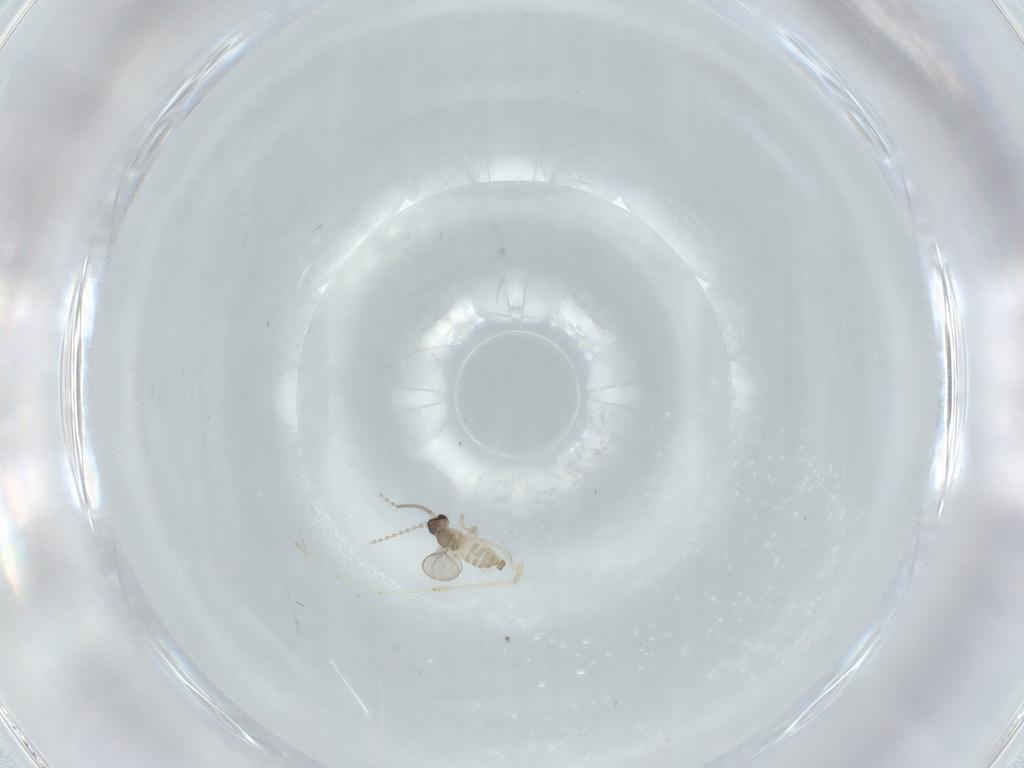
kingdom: Animalia
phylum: Arthropoda
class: Insecta
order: Diptera
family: Cecidomyiidae
